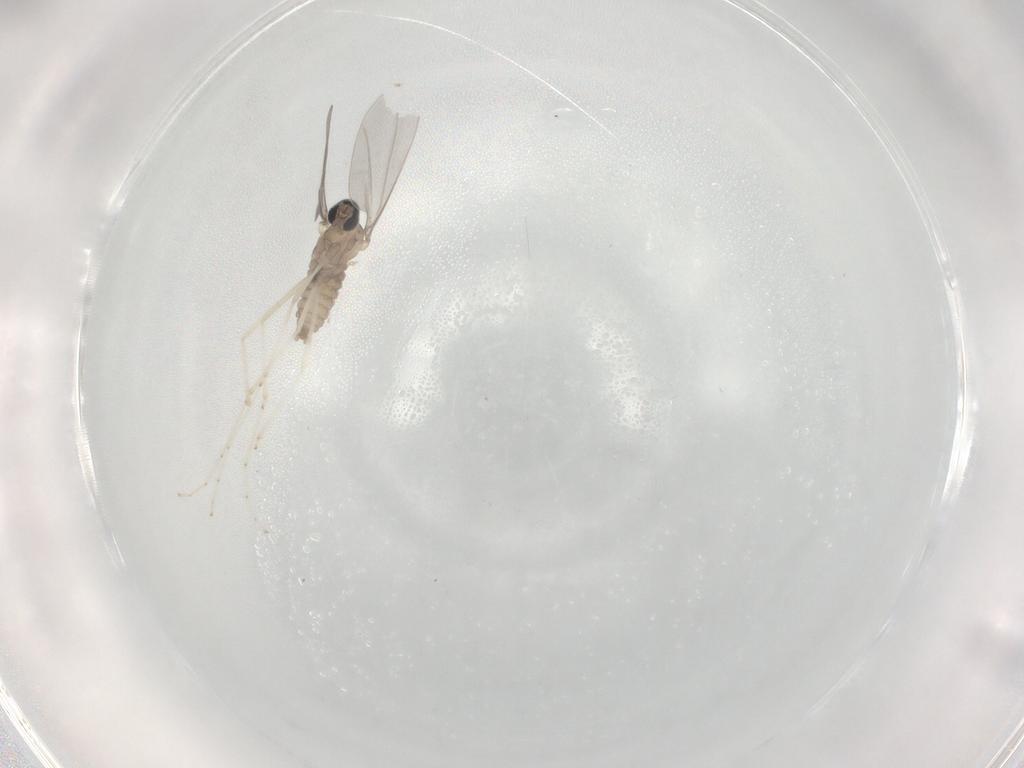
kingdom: Animalia
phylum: Arthropoda
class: Insecta
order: Diptera
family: Cecidomyiidae
